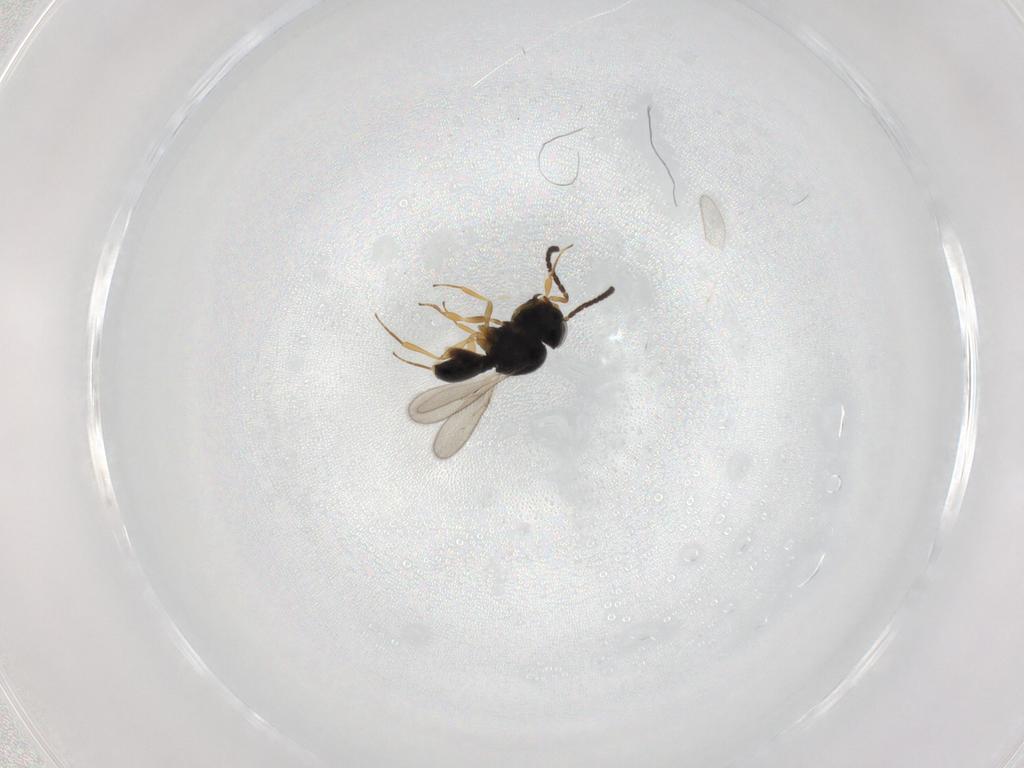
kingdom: Animalia
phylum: Arthropoda
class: Insecta
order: Hymenoptera
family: Scelionidae
